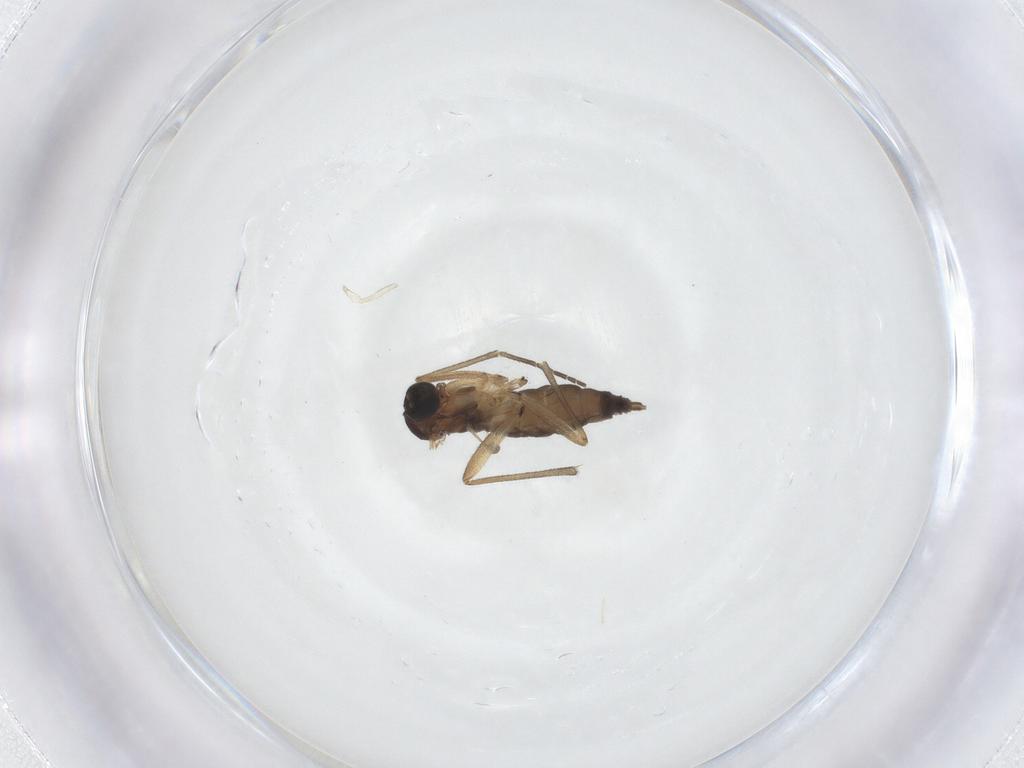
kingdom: Animalia
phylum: Arthropoda
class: Insecta
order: Diptera
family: Sciaridae
